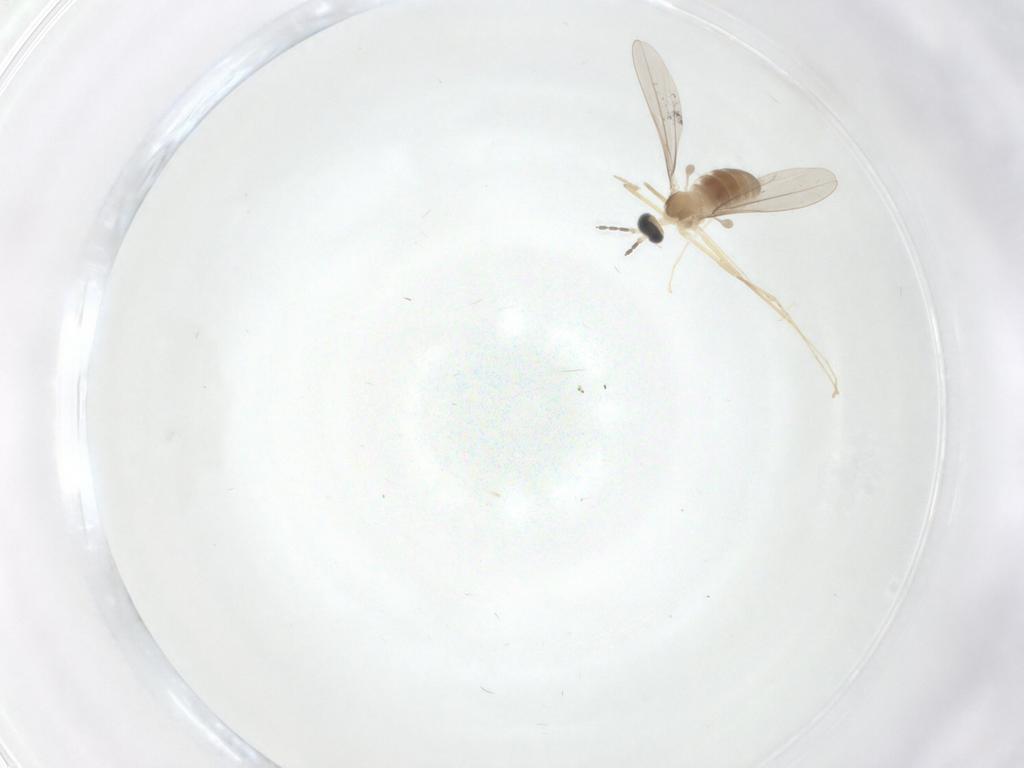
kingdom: Animalia
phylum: Arthropoda
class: Insecta
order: Diptera
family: Cecidomyiidae
